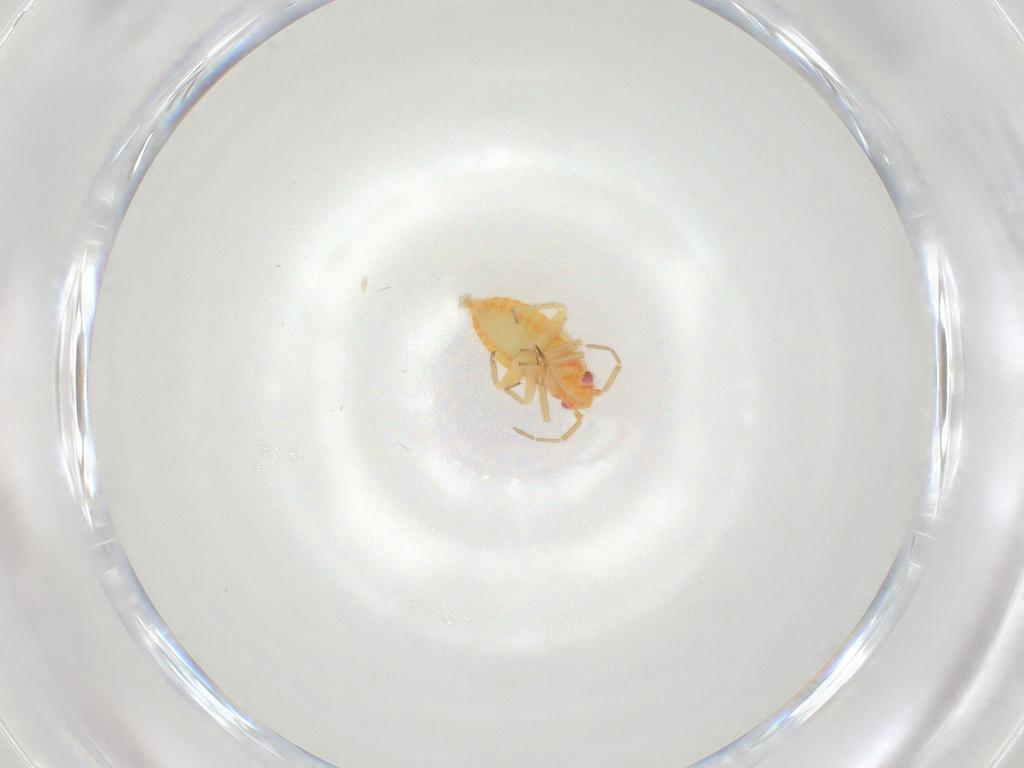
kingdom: Animalia
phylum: Arthropoda
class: Insecta
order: Hemiptera
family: Miridae
